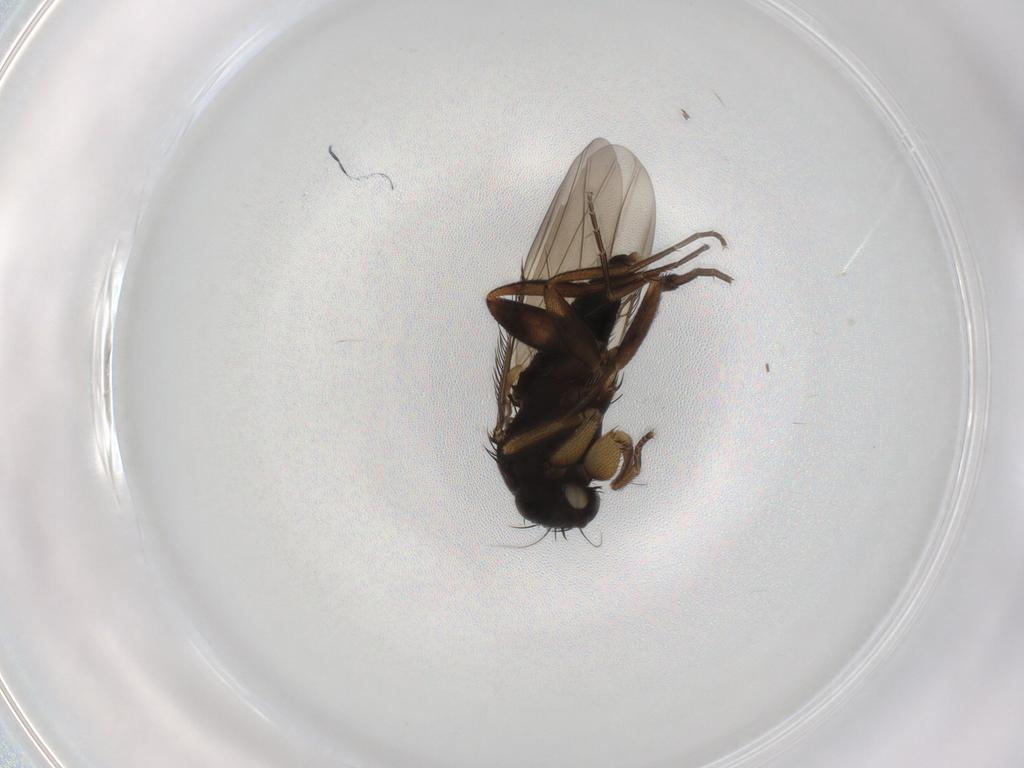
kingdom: Animalia
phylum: Arthropoda
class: Insecta
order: Diptera
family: Phoridae
